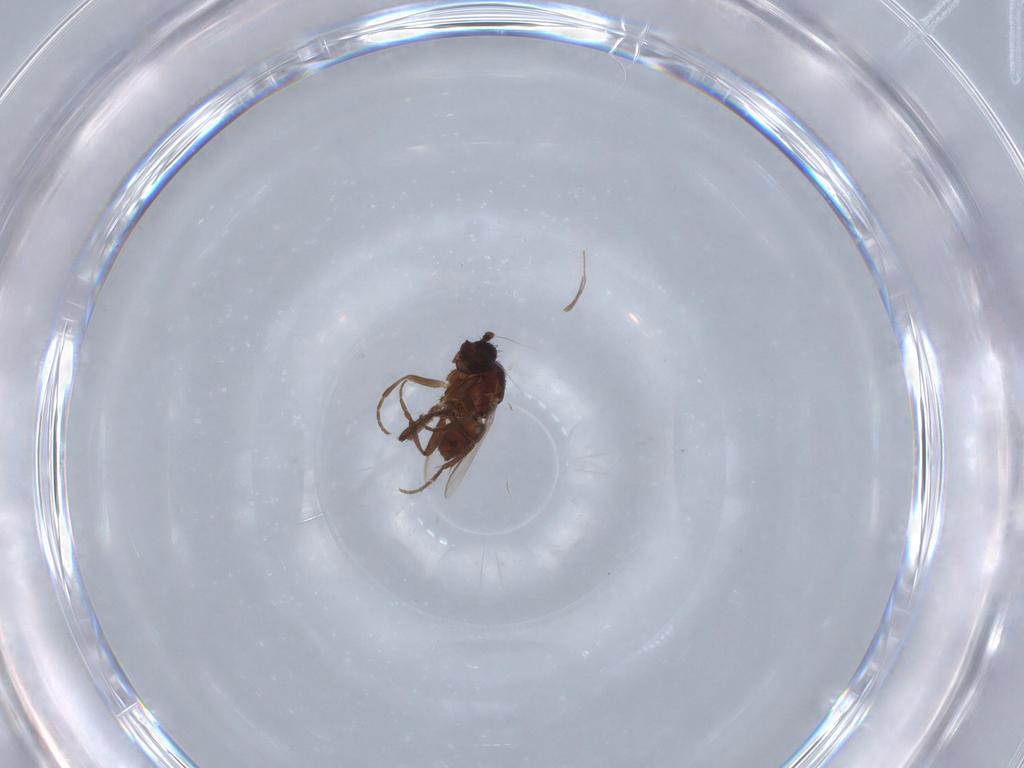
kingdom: Animalia
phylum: Arthropoda
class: Insecta
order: Diptera
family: Sphaeroceridae
